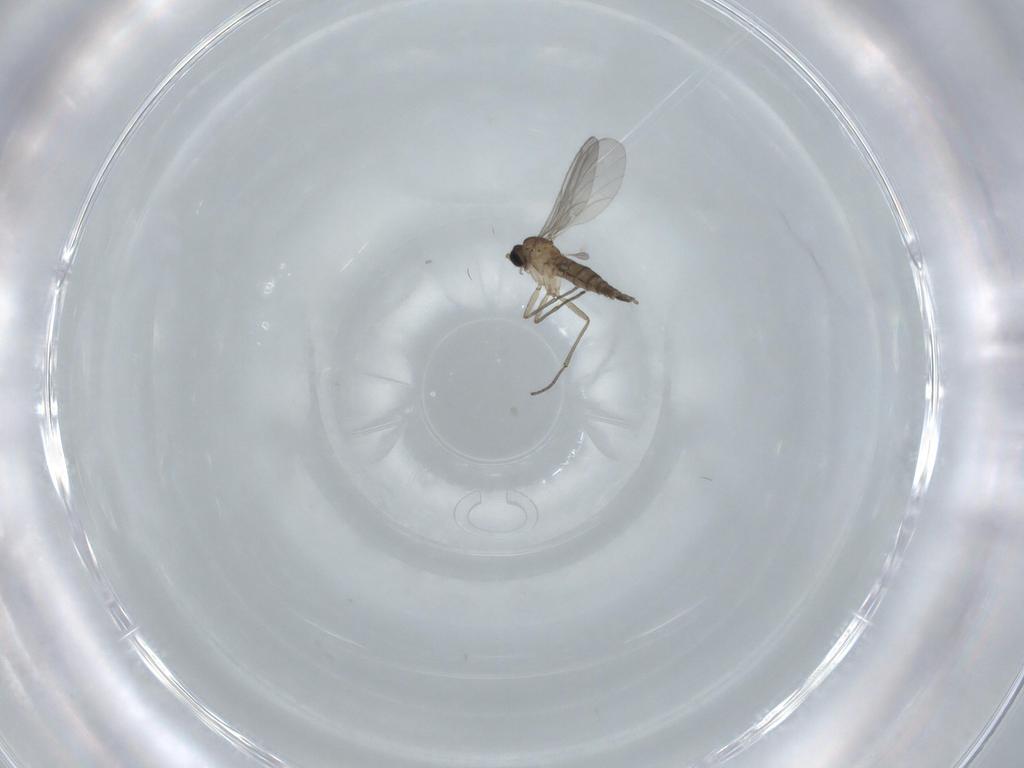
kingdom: Animalia
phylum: Arthropoda
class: Insecta
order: Diptera
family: Sciaridae
